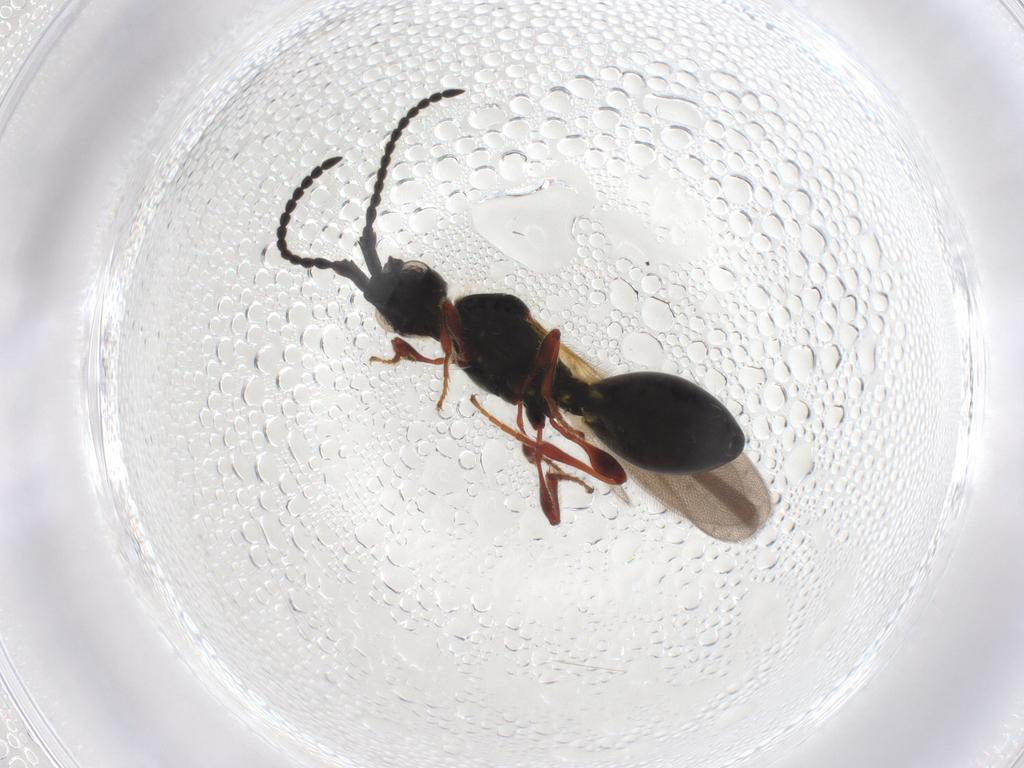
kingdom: Animalia
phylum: Arthropoda
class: Insecta
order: Hymenoptera
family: Diapriidae
